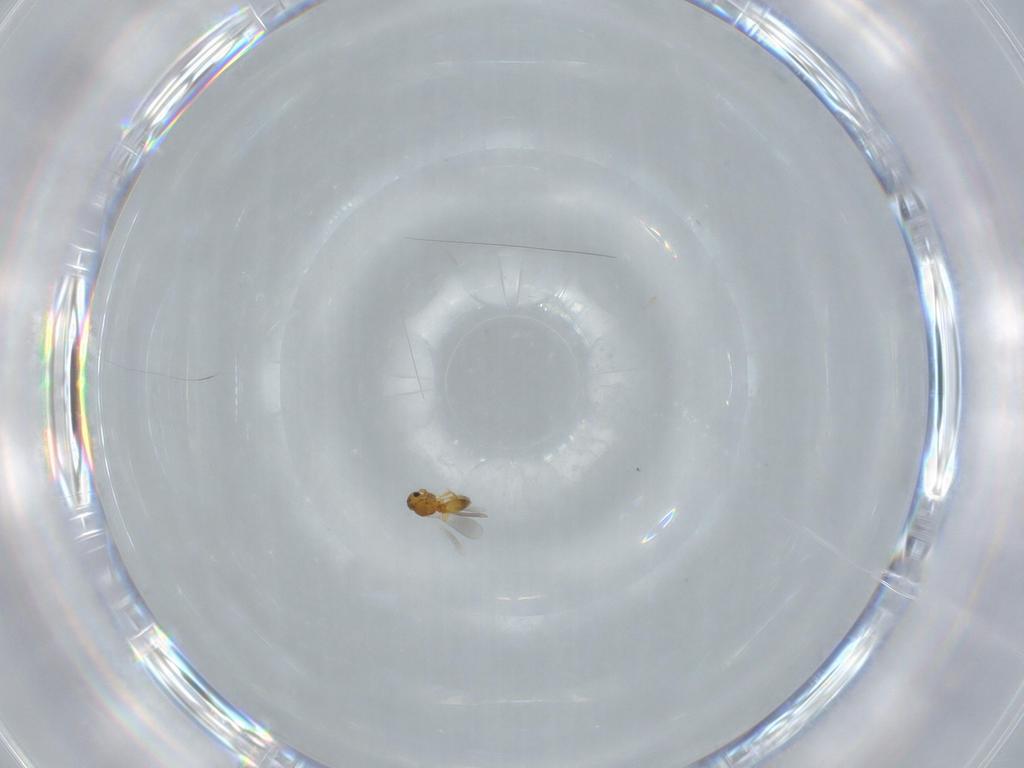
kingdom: Animalia
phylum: Arthropoda
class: Insecta
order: Hymenoptera
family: Platygastridae
